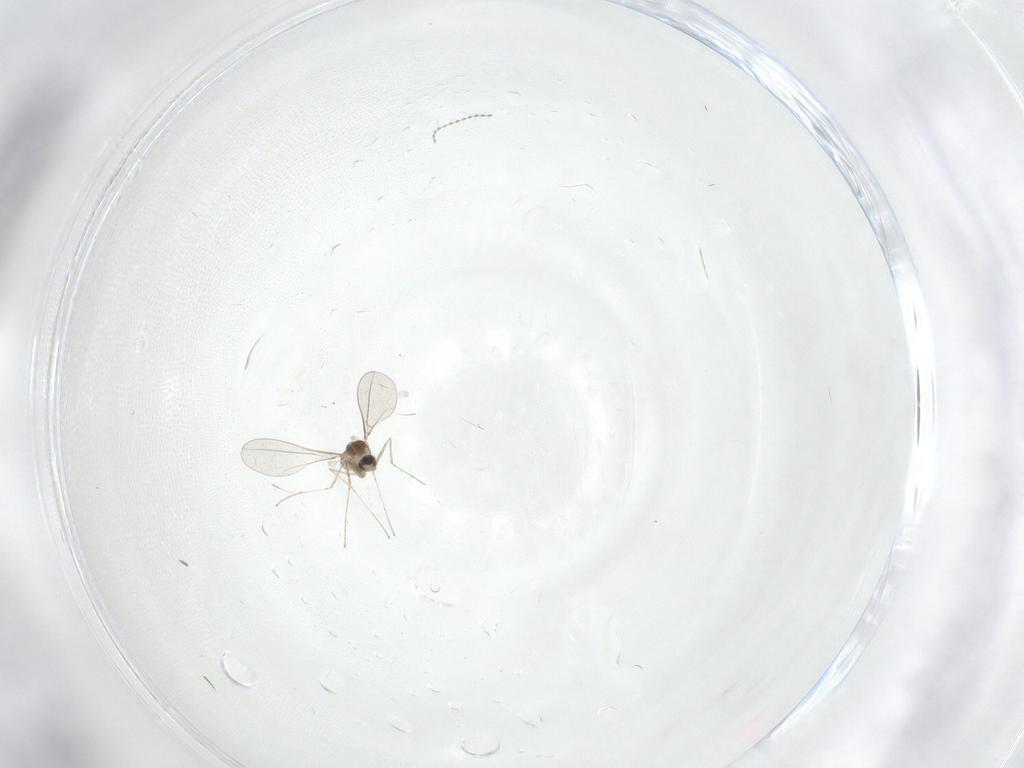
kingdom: Animalia
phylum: Arthropoda
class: Insecta
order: Diptera
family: Cecidomyiidae
